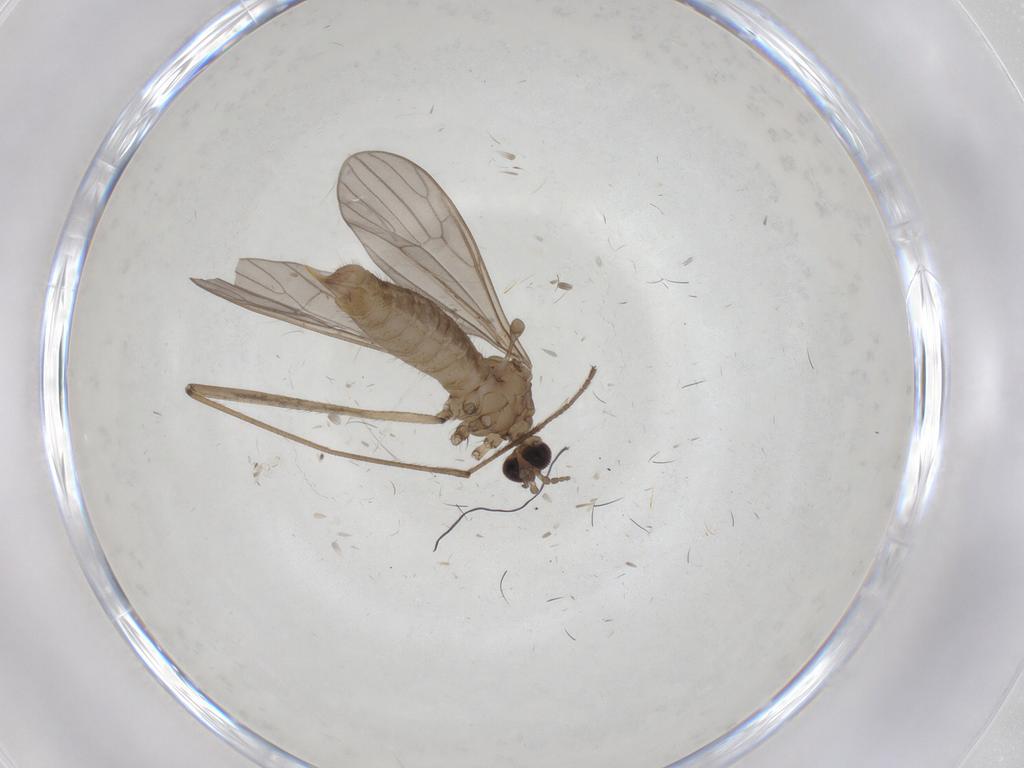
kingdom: Animalia
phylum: Arthropoda
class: Insecta
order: Diptera
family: Limoniidae
